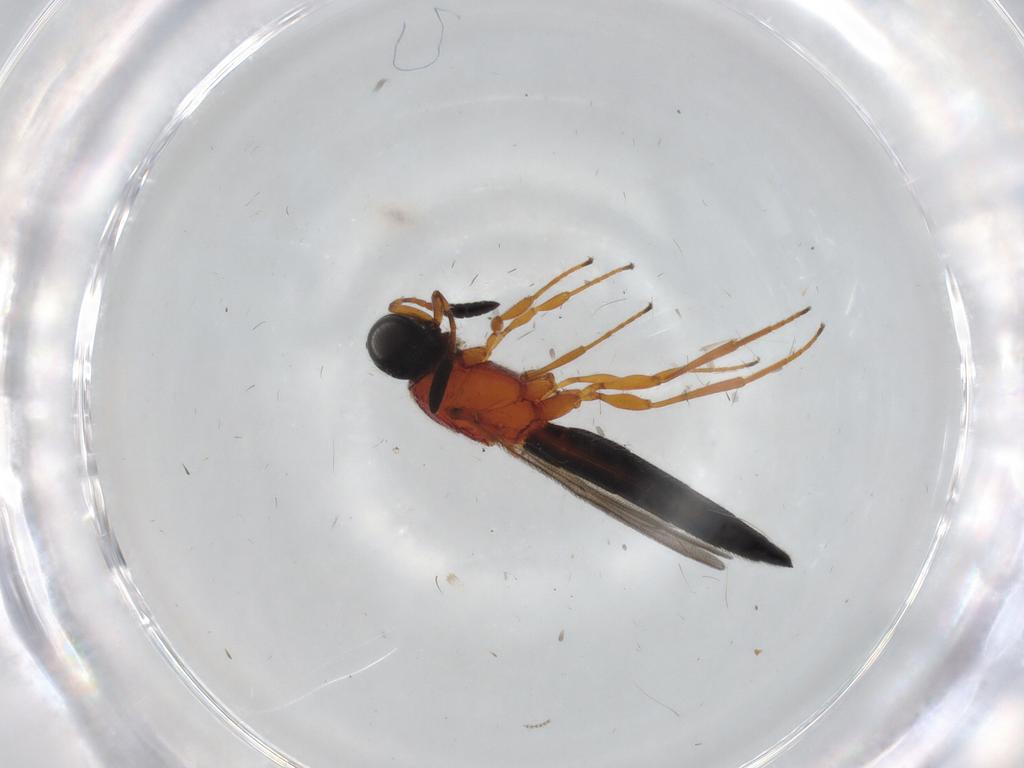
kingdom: Animalia
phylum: Arthropoda
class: Insecta
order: Hymenoptera
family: Scelionidae
